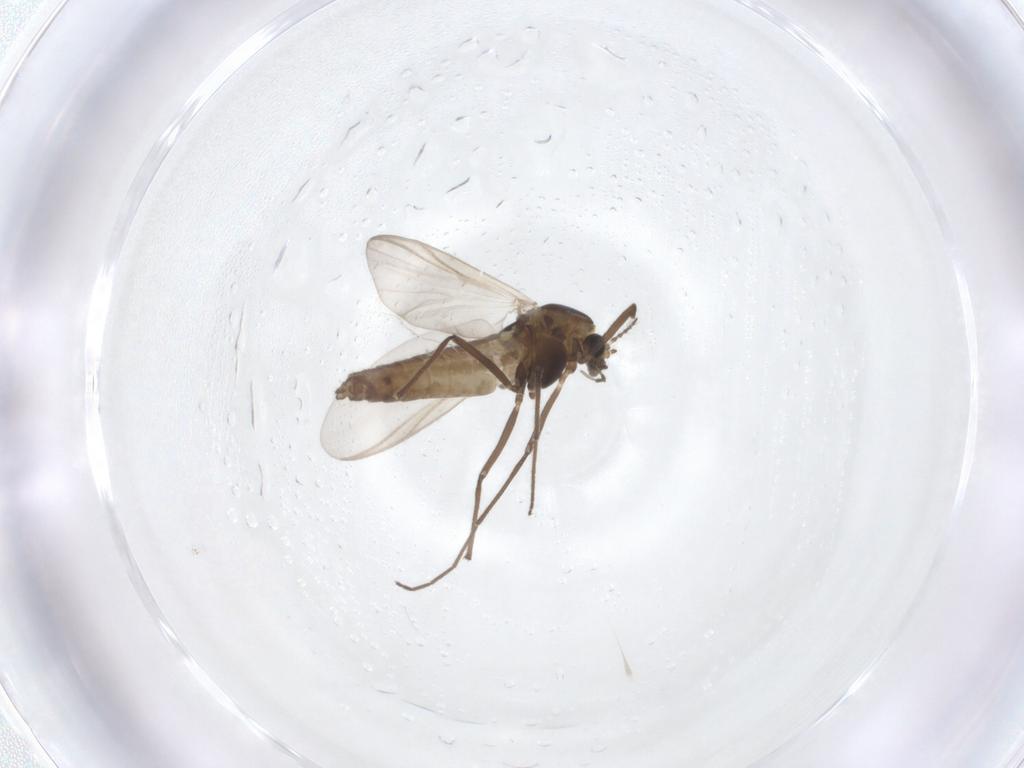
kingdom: Animalia
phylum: Arthropoda
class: Insecta
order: Diptera
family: Chironomidae
